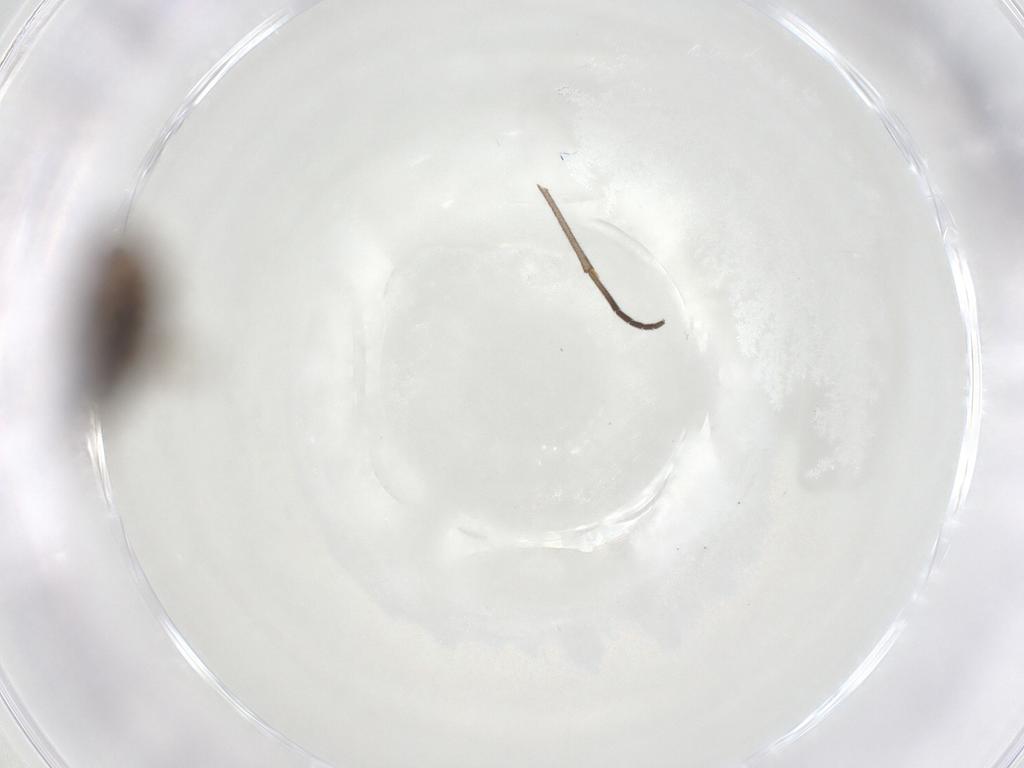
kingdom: Animalia
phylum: Arthropoda
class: Insecta
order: Hymenoptera
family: Eulophidae
